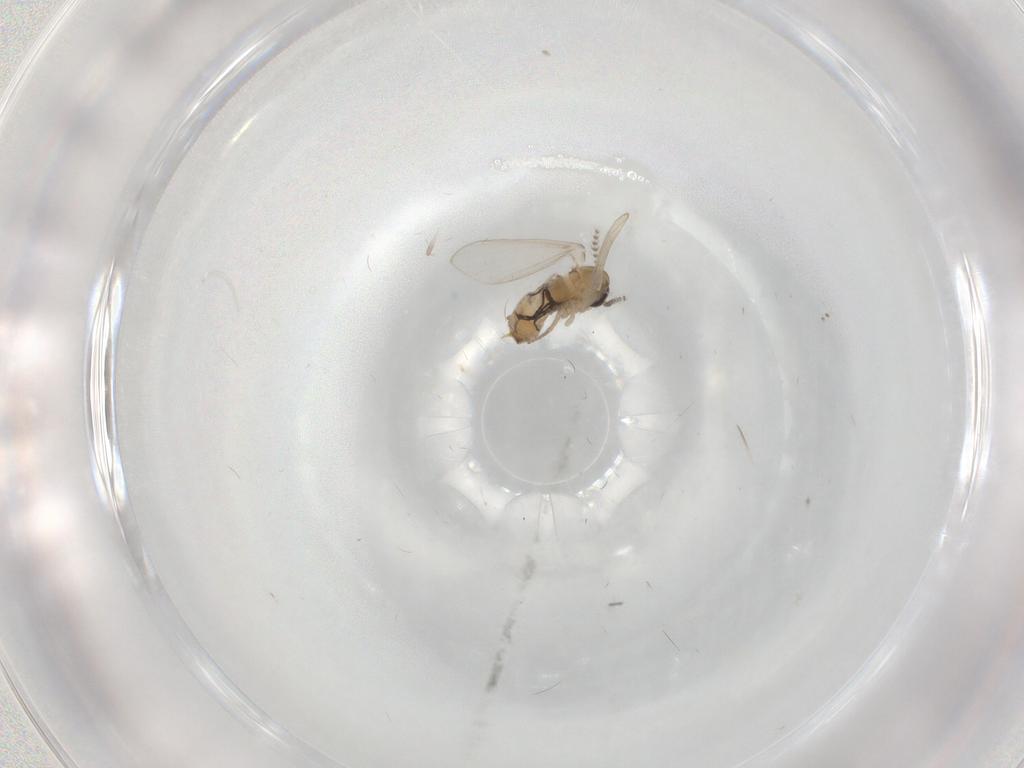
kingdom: Animalia
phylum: Arthropoda
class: Insecta
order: Diptera
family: Psychodidae
